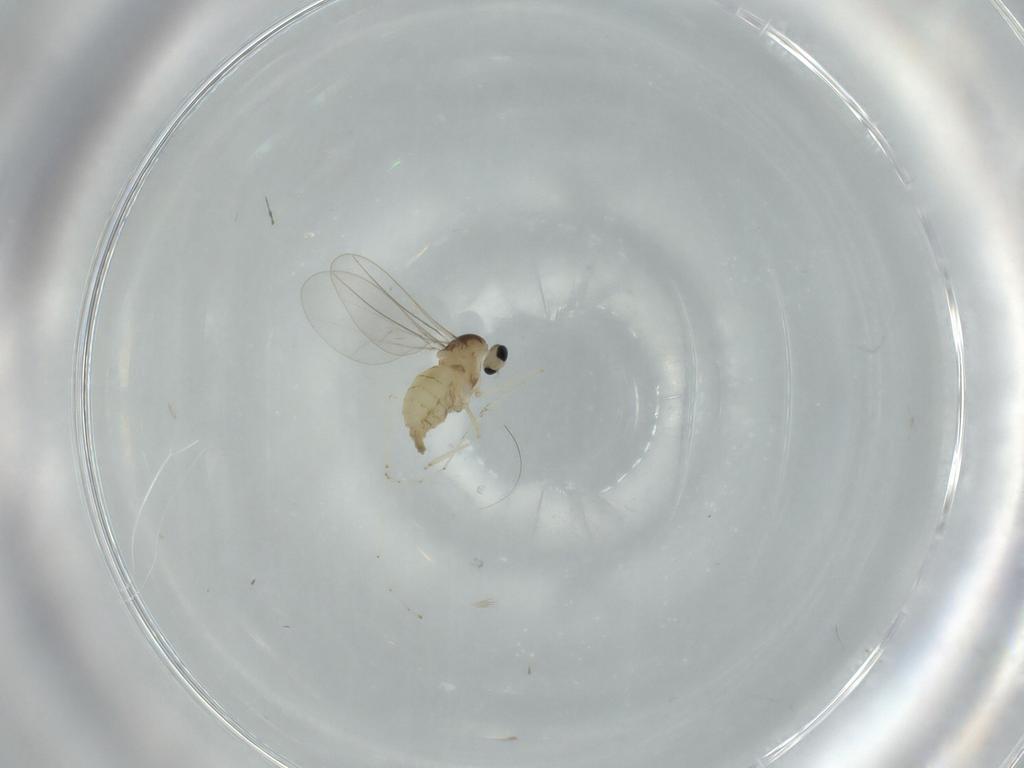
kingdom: Animalia
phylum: Arthropoda
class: Insecta
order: Diptera
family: Cecidomyiidae
